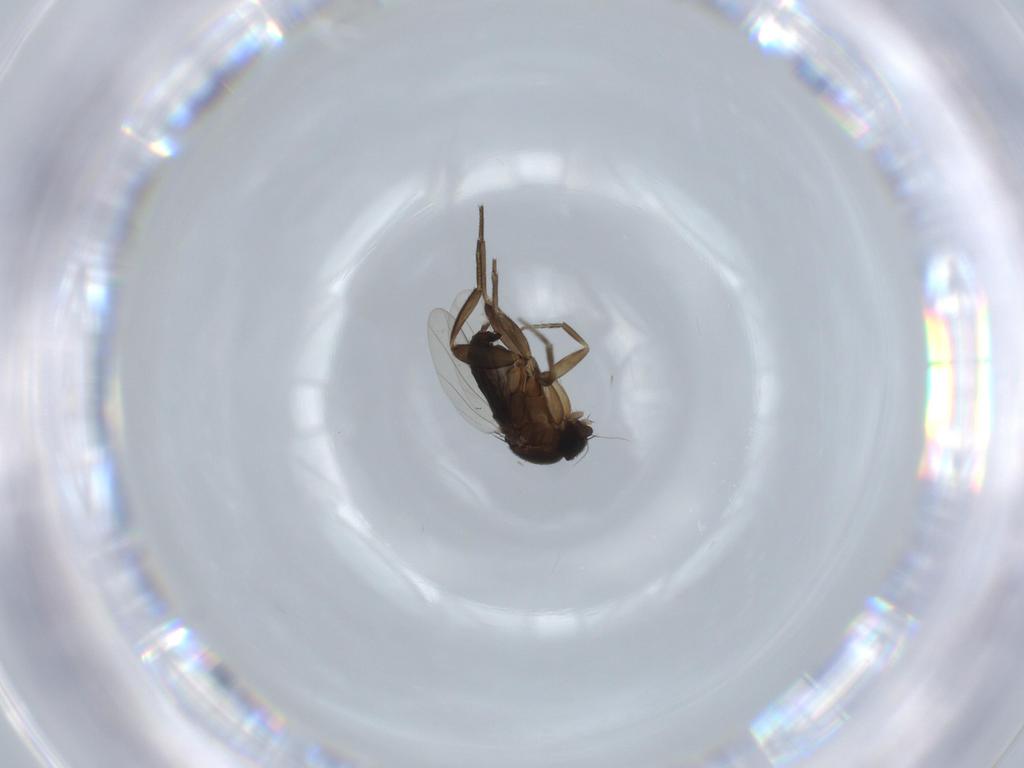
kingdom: Animalia
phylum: Arthropoda
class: Insecta
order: Diptera
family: Phoridae
